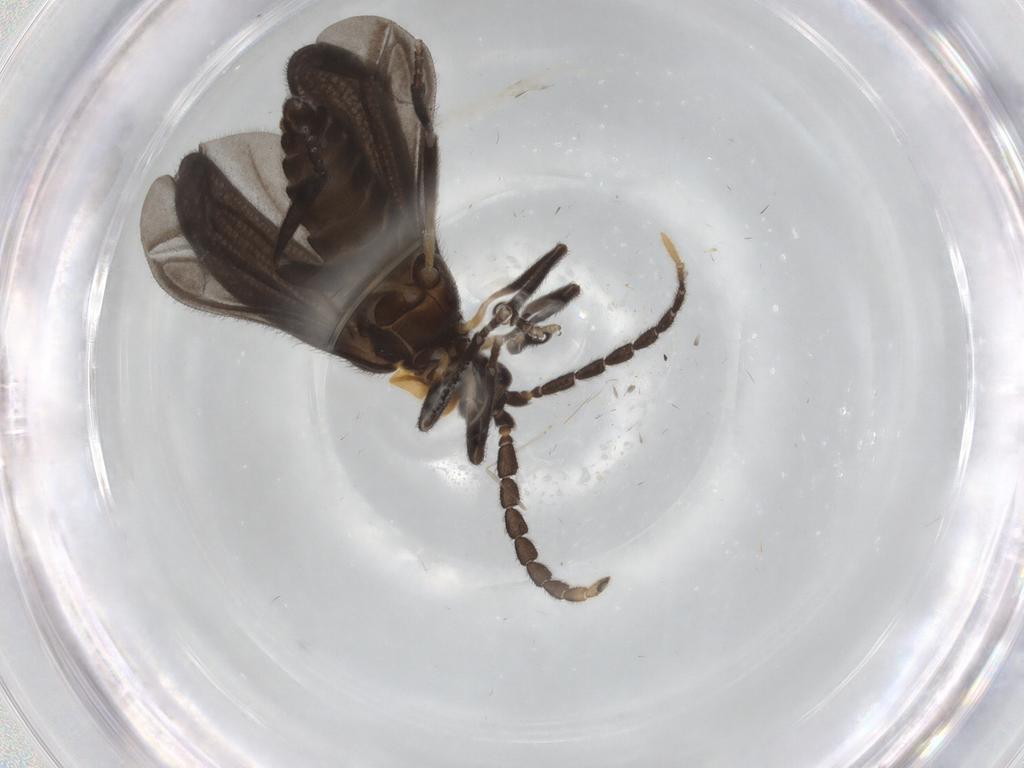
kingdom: Animalia
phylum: Arthropoda
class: Insecta
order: Coleoptera
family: Lycidae
